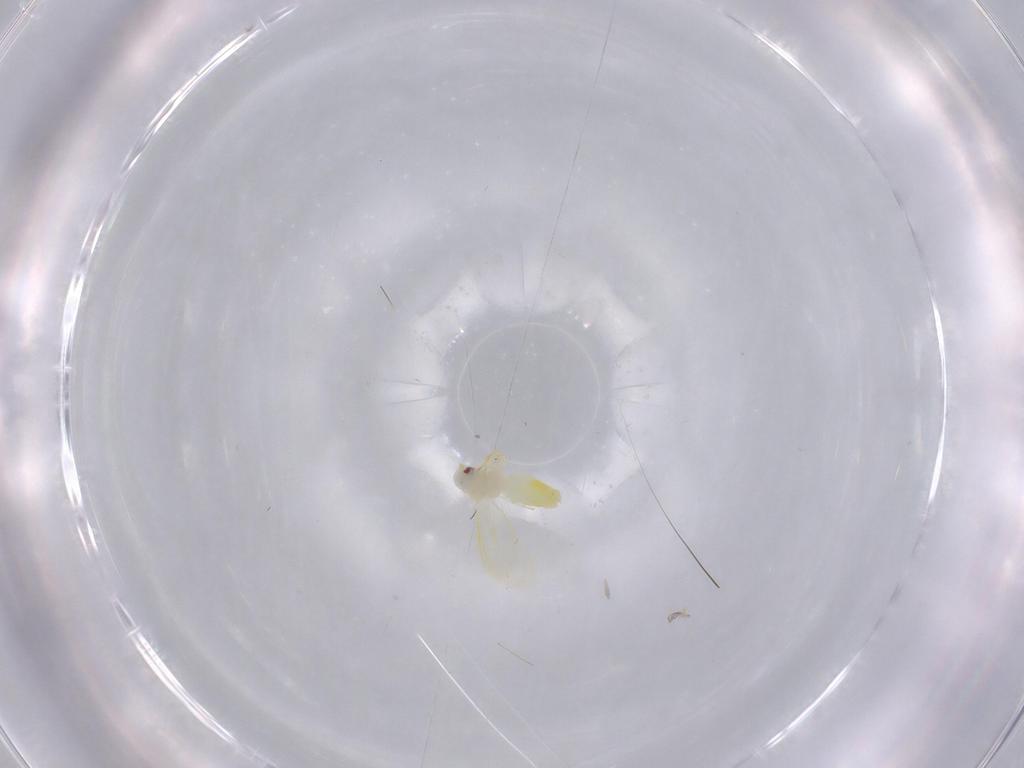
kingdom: Animalia
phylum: Arthropoda
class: Insecta
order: Hemiptera
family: Aleyrodidae
